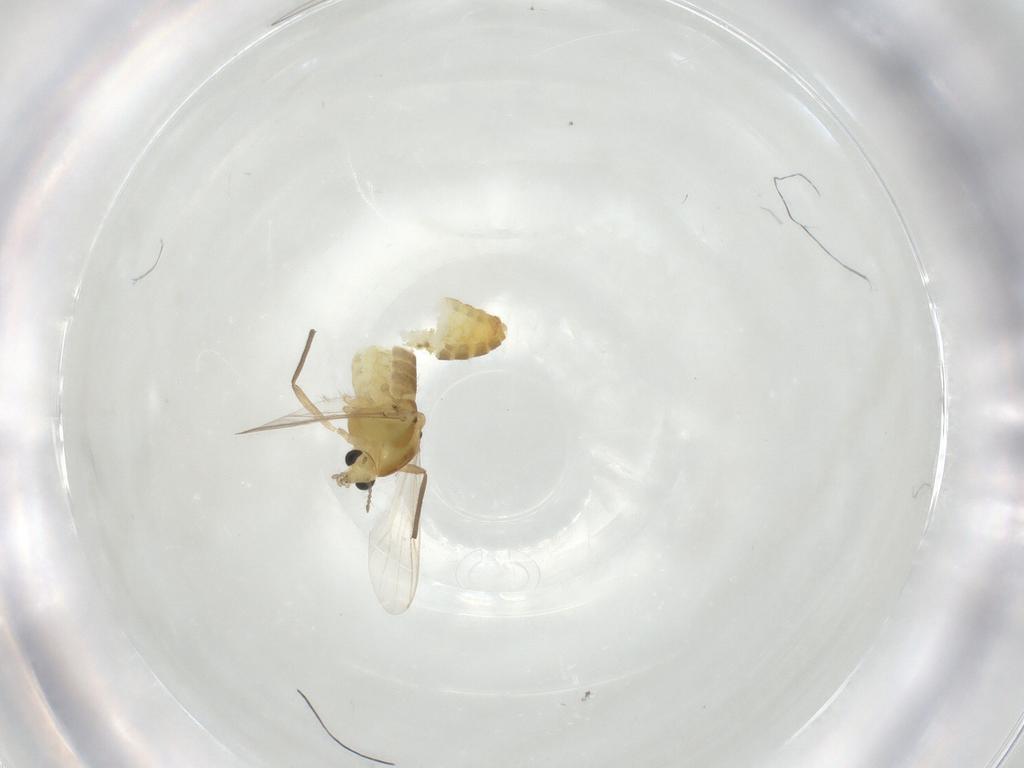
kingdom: Animalia
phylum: Arthropoda
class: Insecta
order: Diptera
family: Chironomidae
